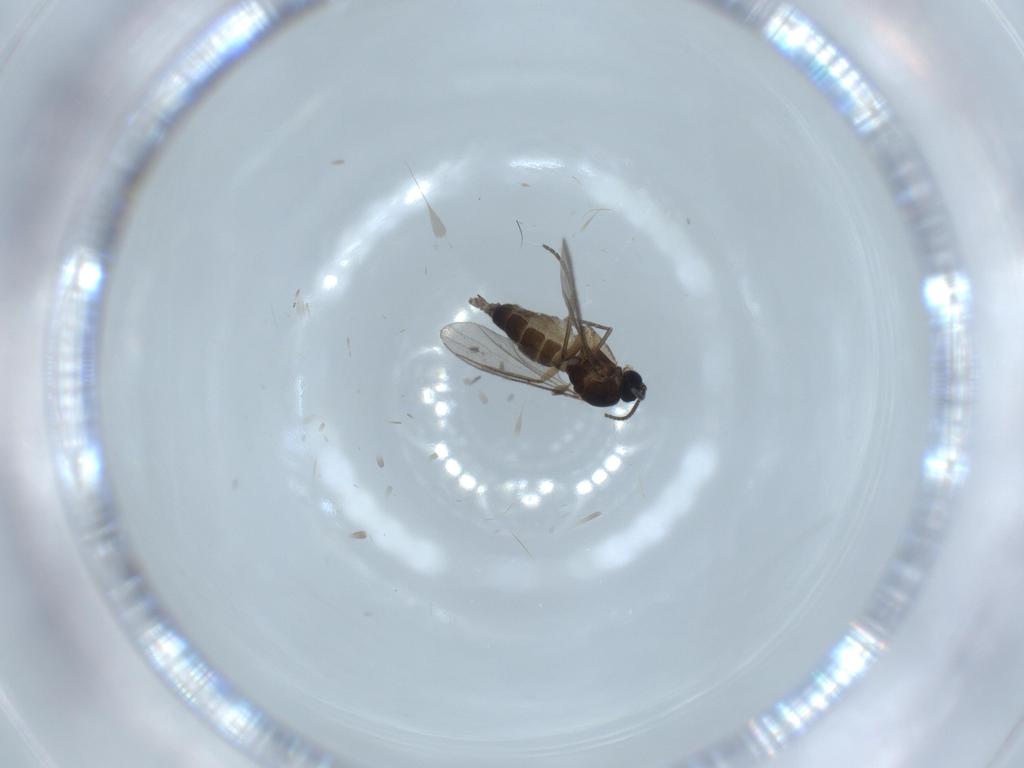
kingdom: Animalia
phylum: Arthropoda
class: Insecta
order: Diptera
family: Sciaridae
